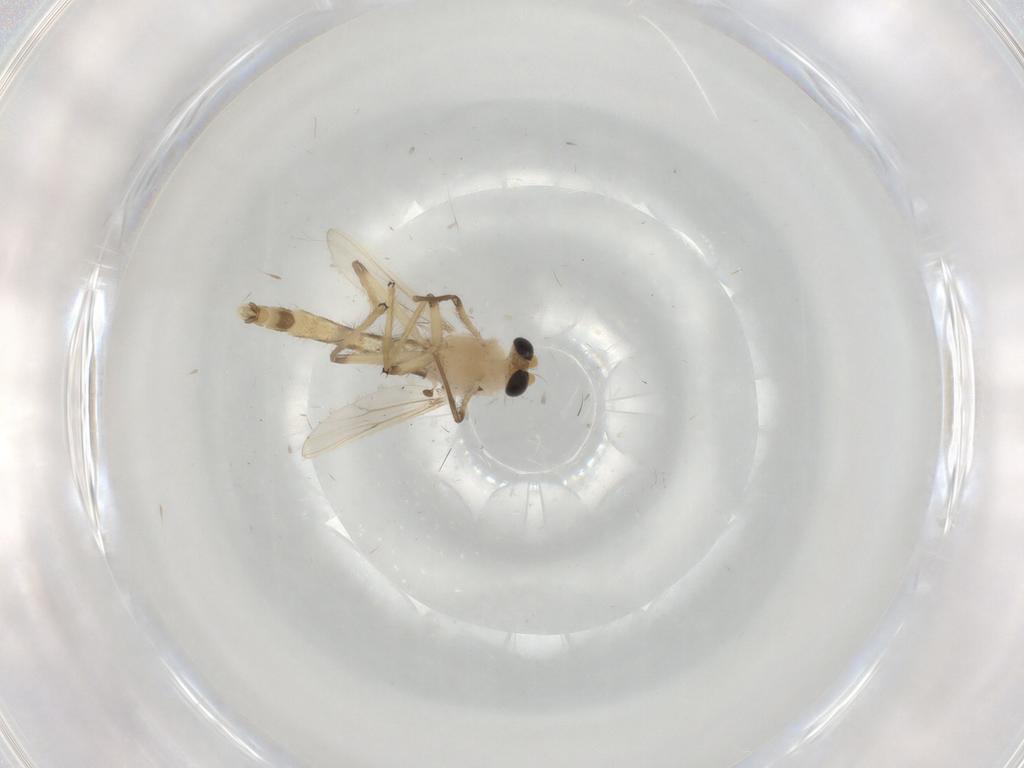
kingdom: Animalia
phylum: Arthropoda
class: Insecta
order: Diptera
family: Chironomidae
